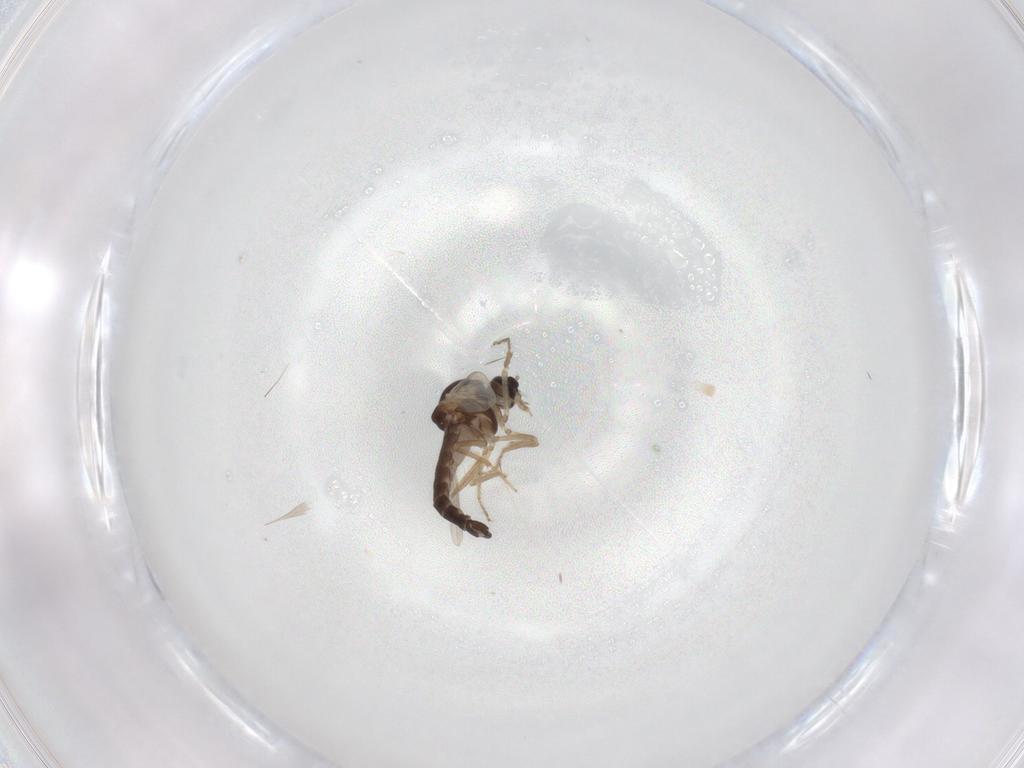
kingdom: Animalia
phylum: Arthropoda
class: Insecta
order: Diptera
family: Ceratopogonidae
